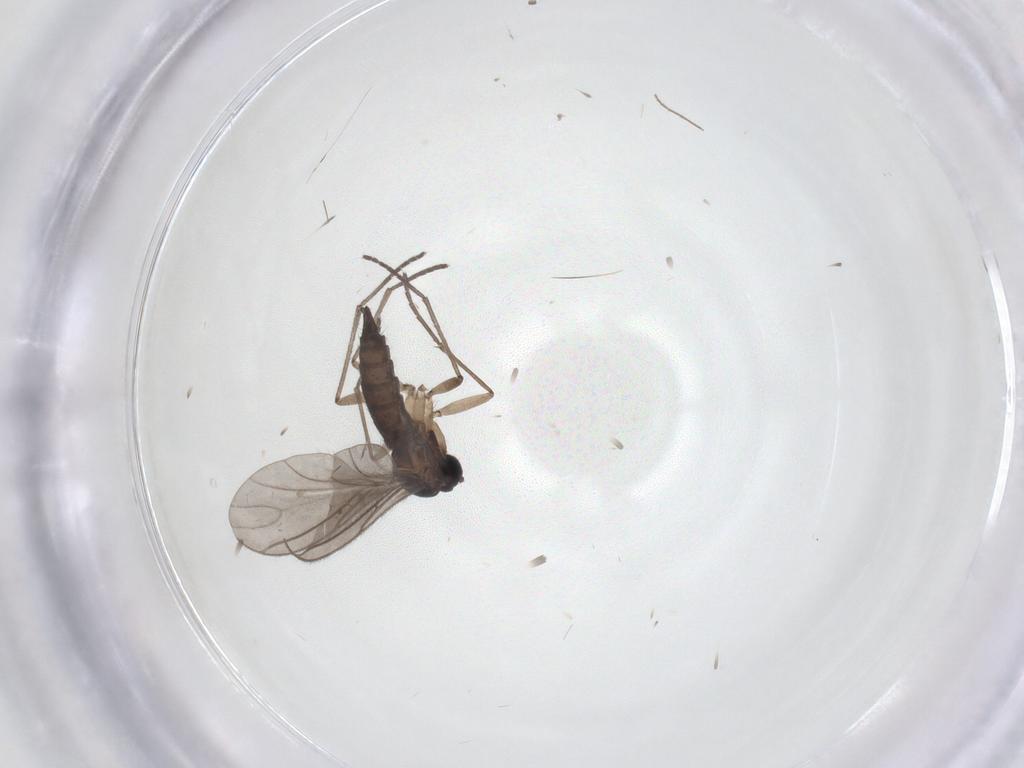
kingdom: Animalia
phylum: Arthropoda
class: Insecta
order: Diptera
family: Chironomidae
